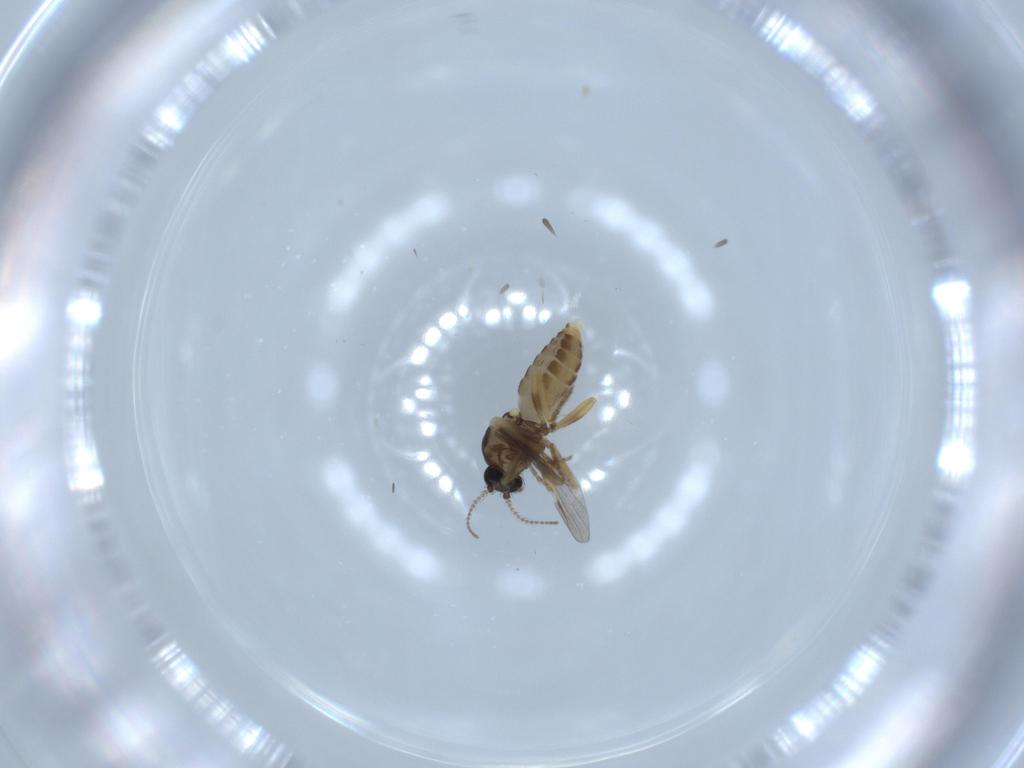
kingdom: Animalia
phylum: Arthropoda
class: Insecta
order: Diptera
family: Ceratopogonidae
